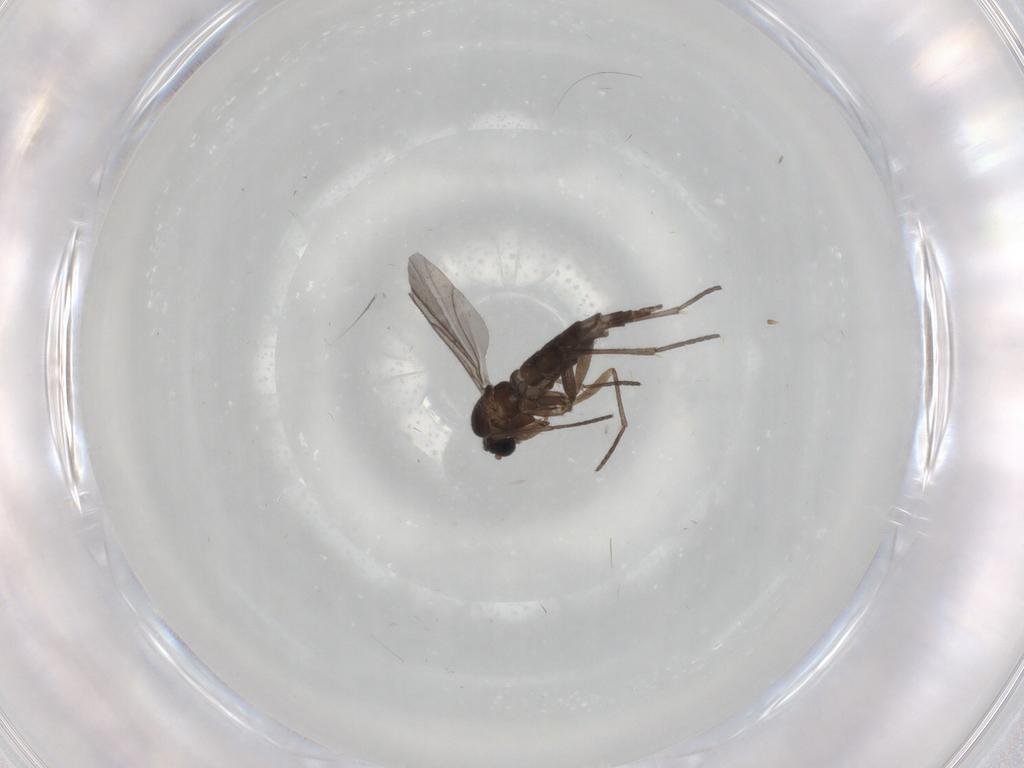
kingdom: Animalia
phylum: Arthropoda
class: Insecta
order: Diptera
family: Sciaridae
